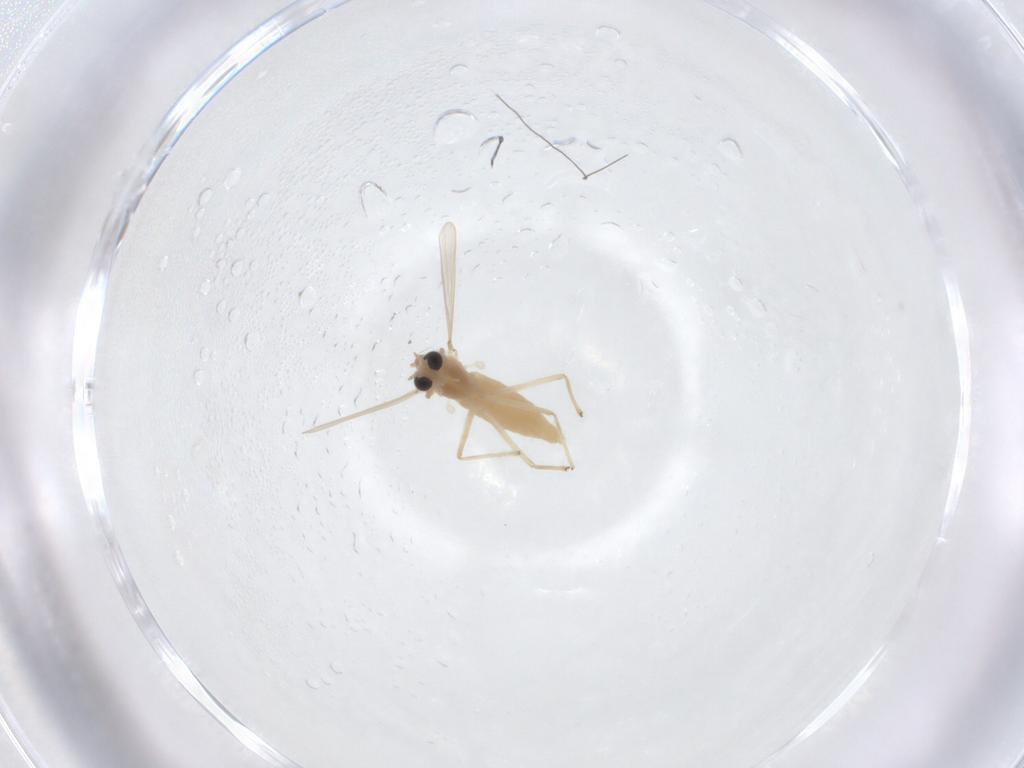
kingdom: Animalia
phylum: Arthropoda
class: Insecta
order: Diptera
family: Chironomidae
